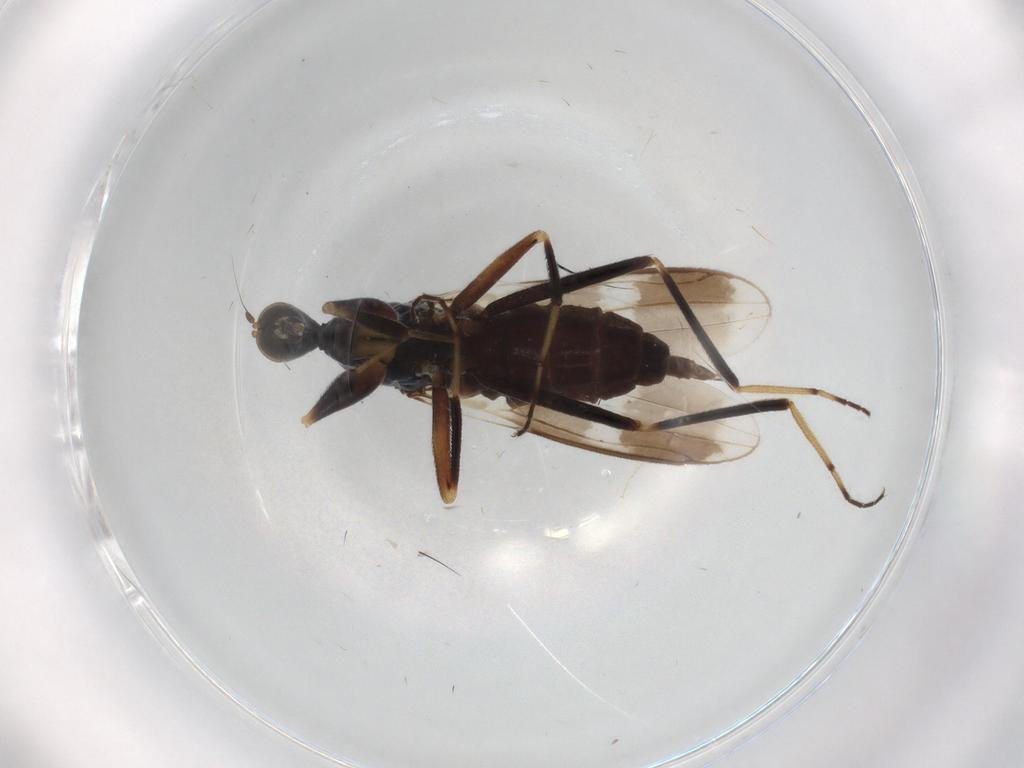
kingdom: Animalia
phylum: Arthropoda
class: Insecta
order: Diptera
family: Hybotidae
